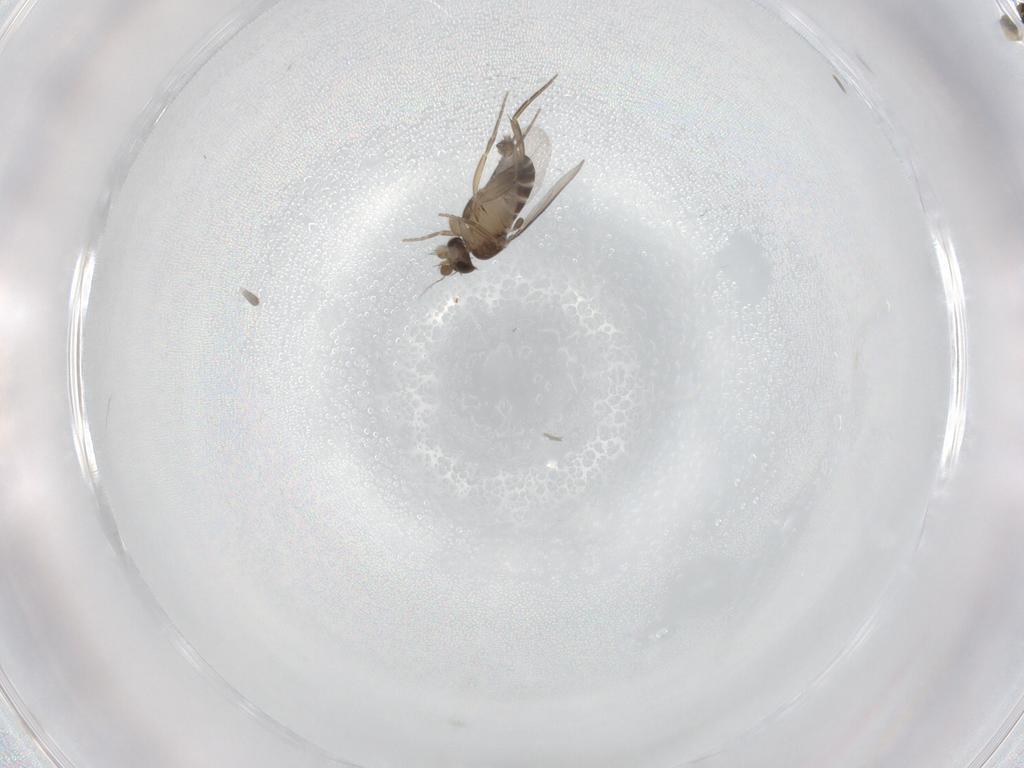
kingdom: Animalia
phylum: Arthropoda
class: Insecta
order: Diptera
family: Phoridae
